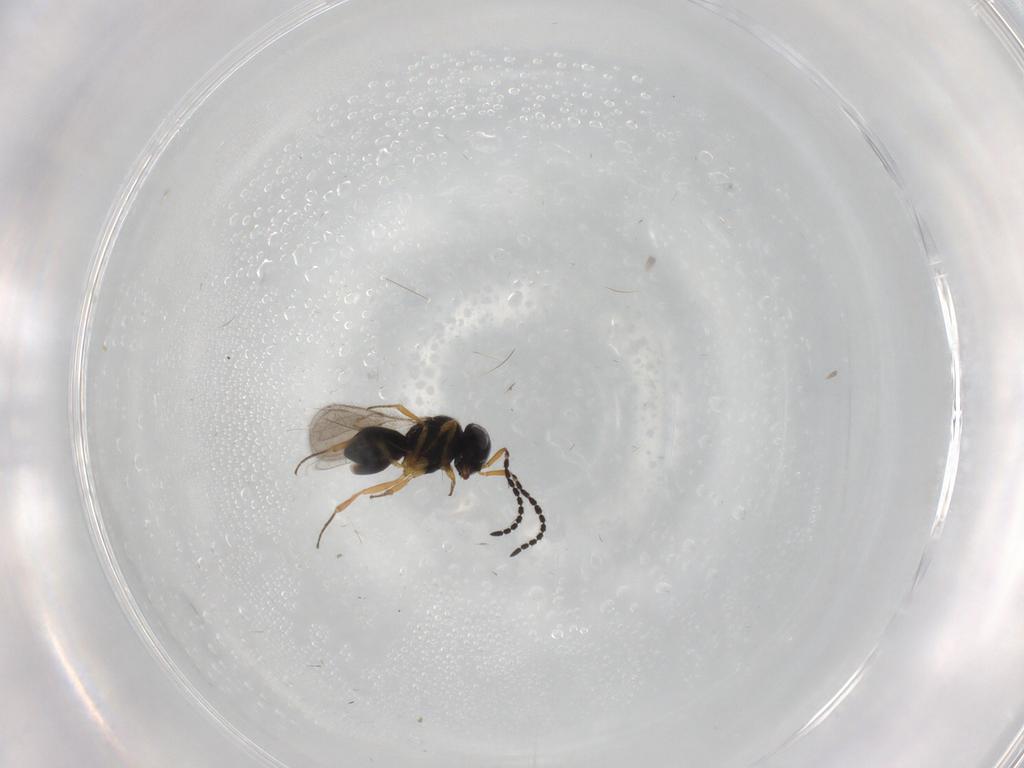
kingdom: Animalia
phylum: Arthropoda
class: Insecta
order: Hymenoptera
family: Scelionidae
